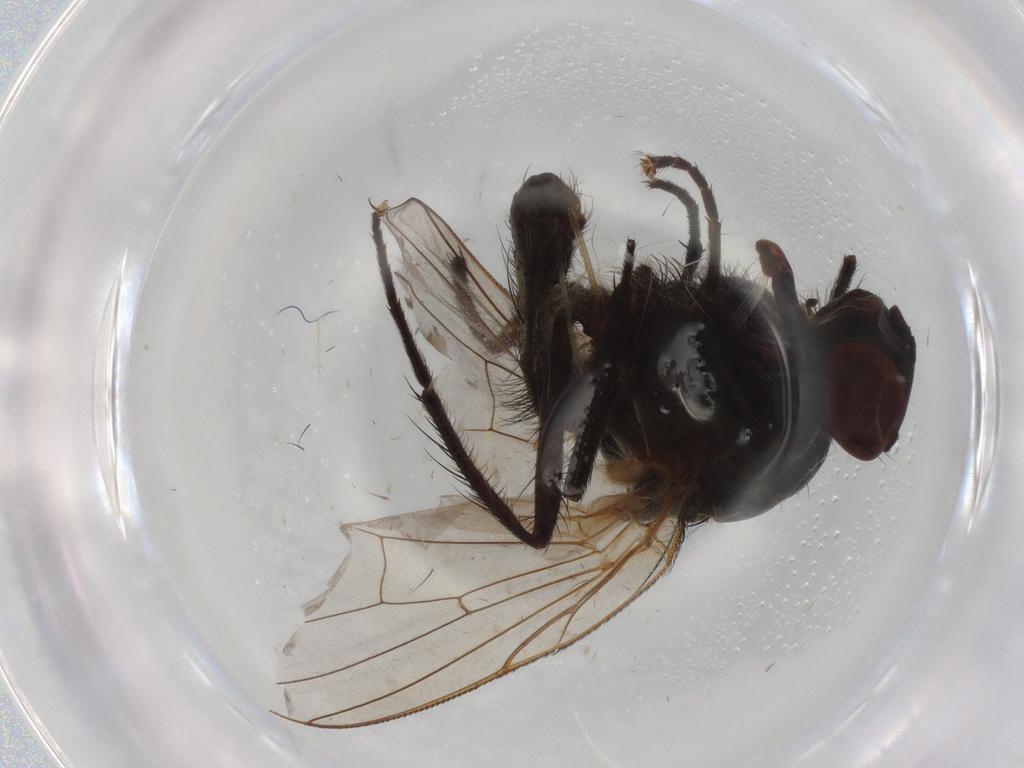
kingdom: Animalia
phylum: Arthropoda
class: Insecta
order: Diptera
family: Anthomyiidae
